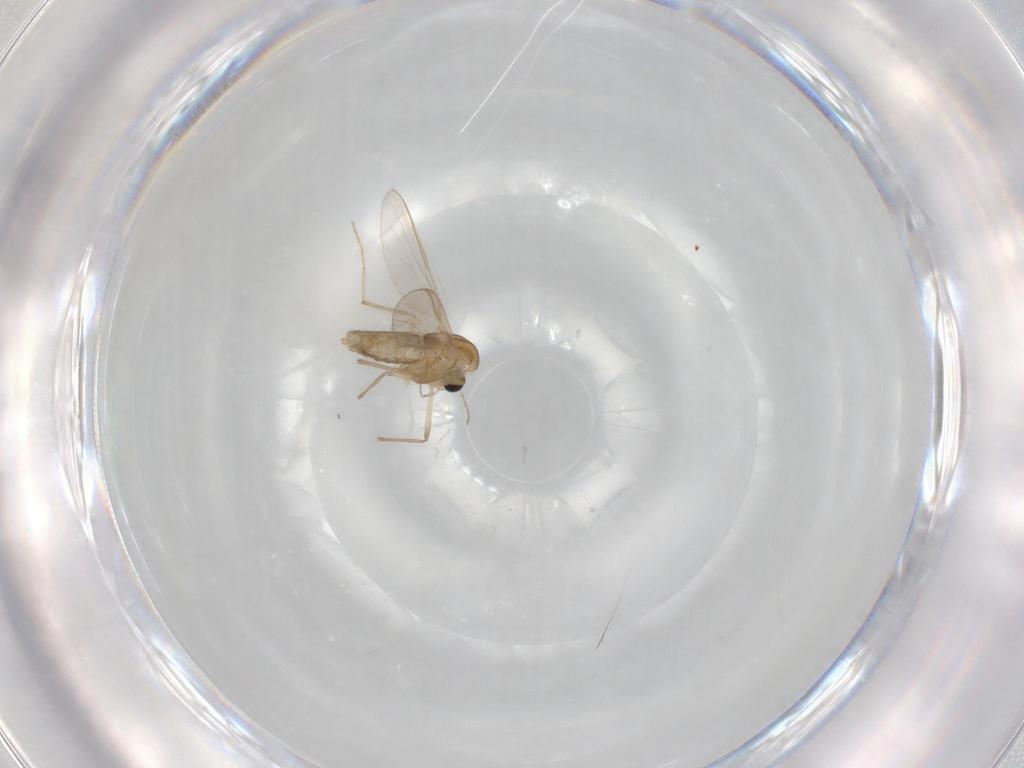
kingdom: Animalia
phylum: Arthropoda
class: Insecta
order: Diptera
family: Chironomidae
